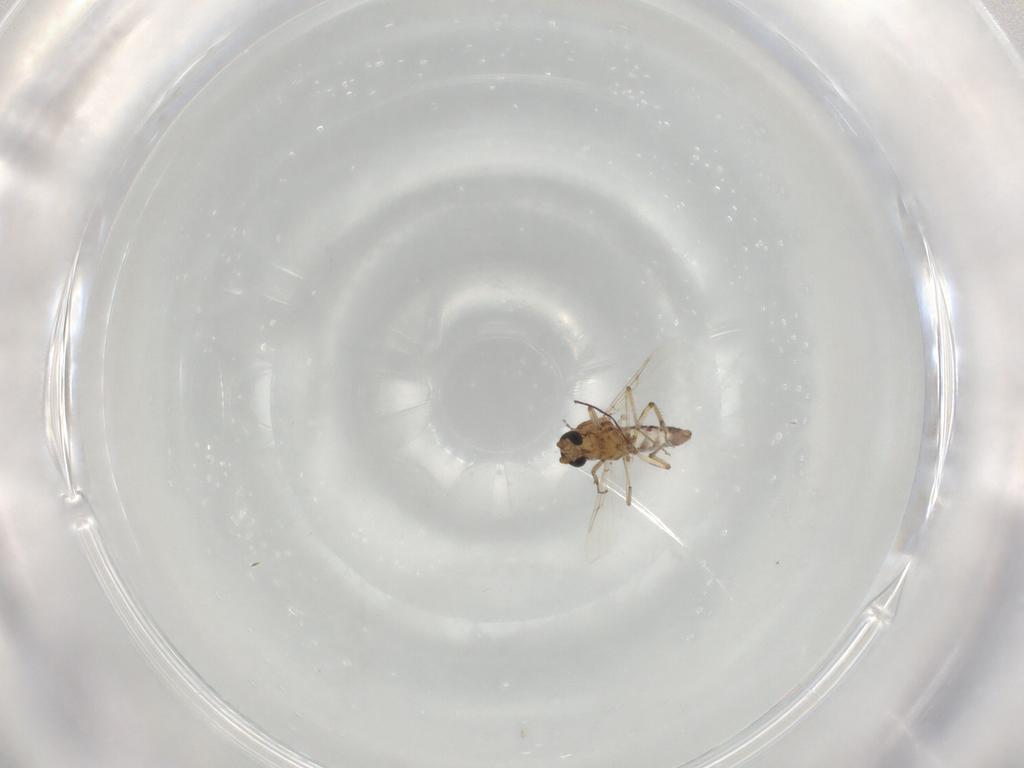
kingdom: Animalia
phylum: Arthropoda
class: Insecta
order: Diptera
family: Ceratopogonidae
